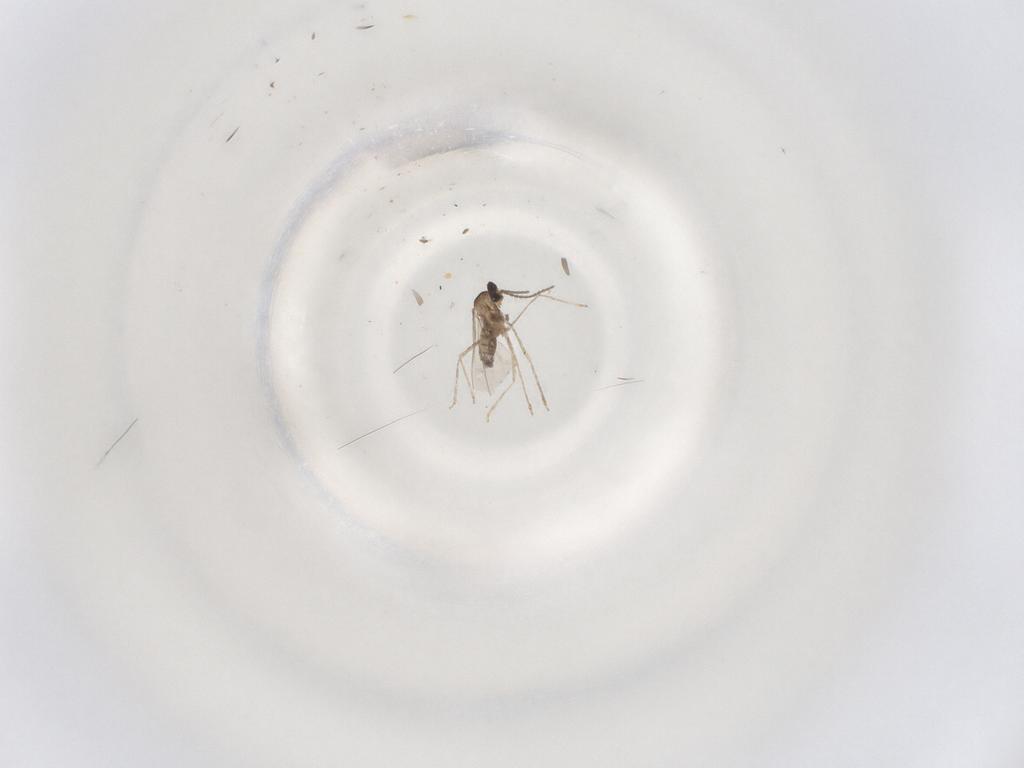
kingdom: Animalia
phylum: Arthropoda
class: Insecta
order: Diptera
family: Cecidomyiidae
